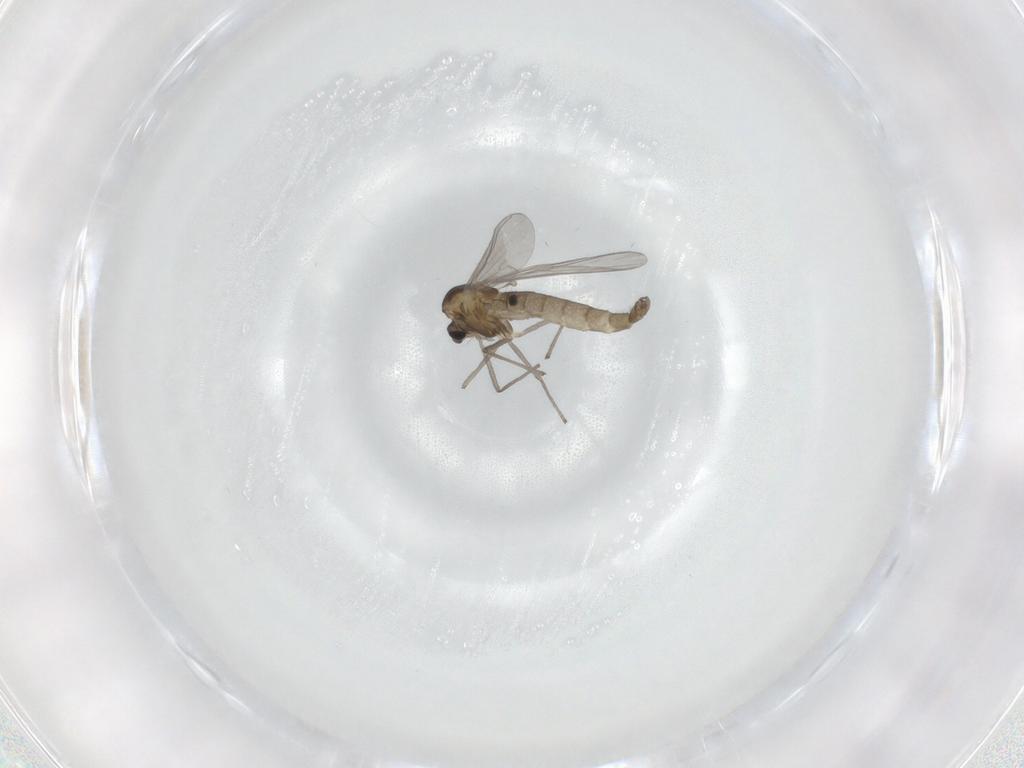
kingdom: Animalia
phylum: Arthropoda
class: Insecta
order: Diptera
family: Chironomidae
